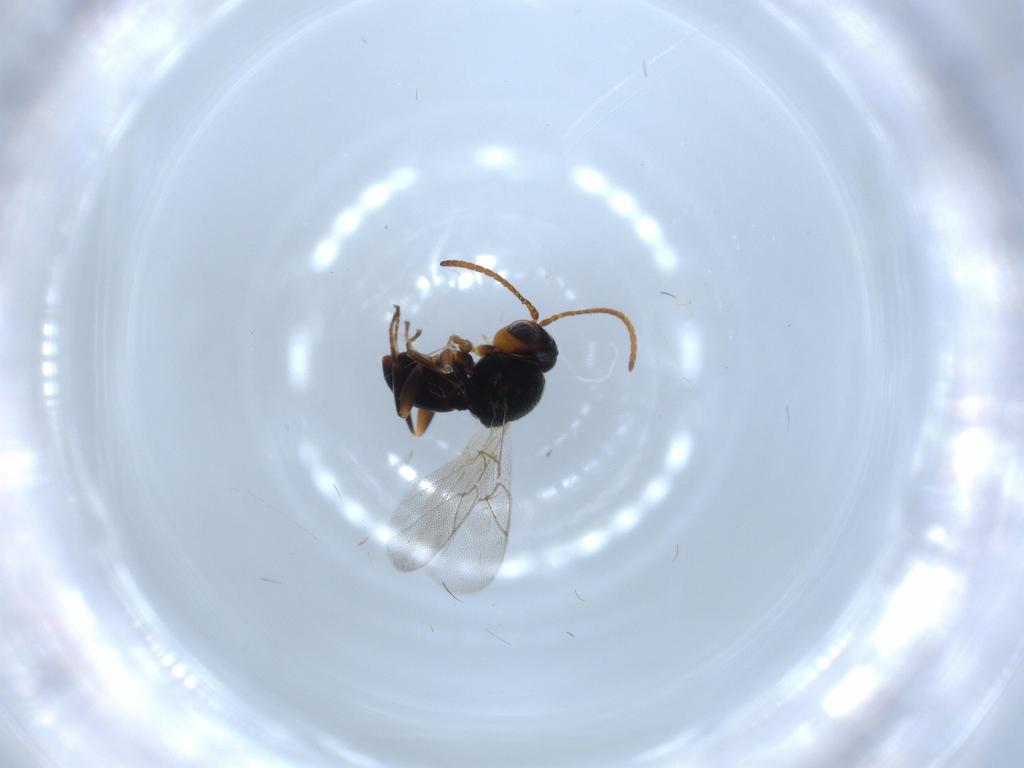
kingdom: Animalia
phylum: Arthropoda
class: Insecta
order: Hymenoptera
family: Cynipidae
